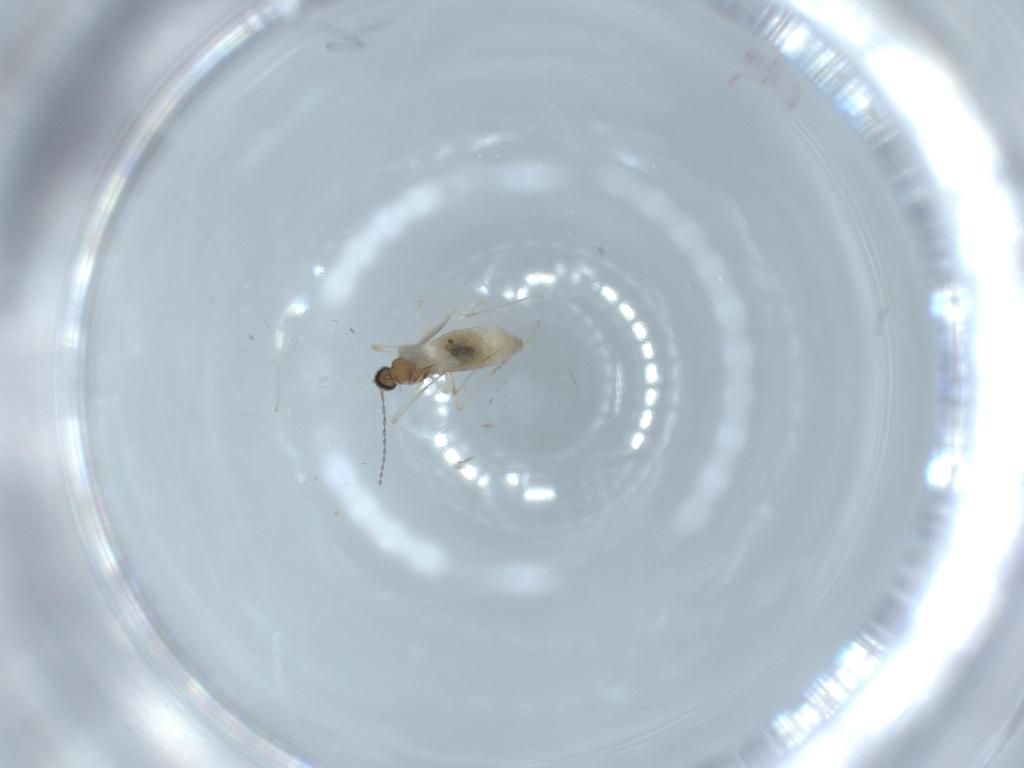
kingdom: Animalia
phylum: Arthropoda
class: Insecta
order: Diptera
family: Cecidomyiidae
